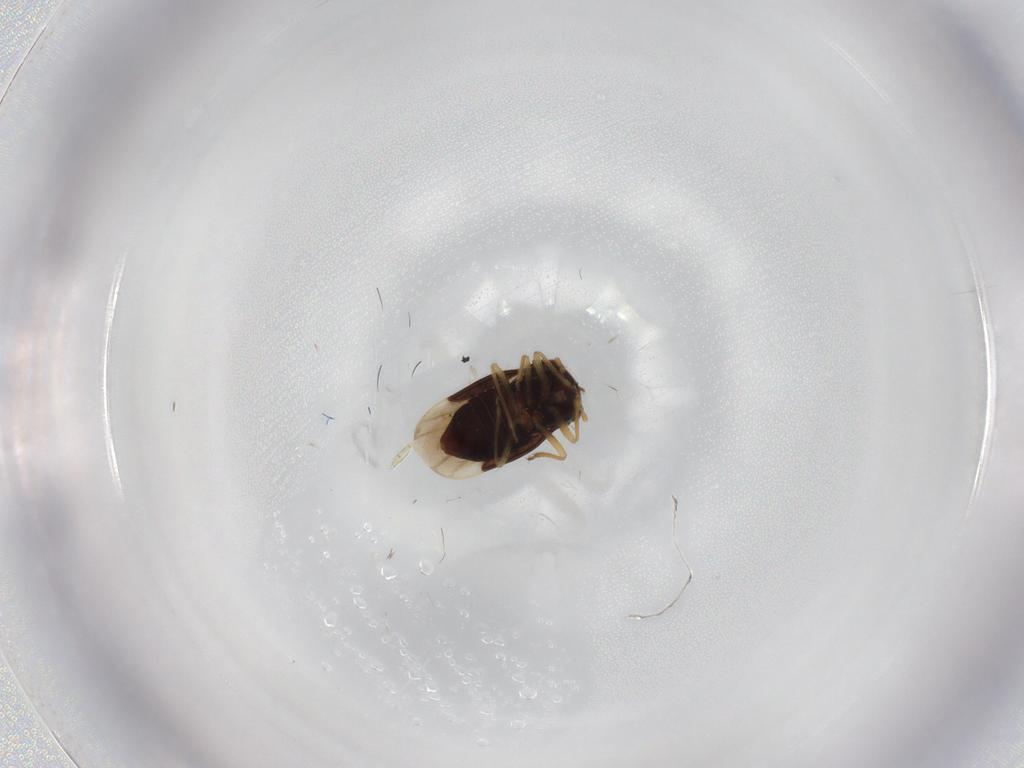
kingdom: Animalia
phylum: Arthropoda
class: Insecta
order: Hemiptera
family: Schizopteridae
